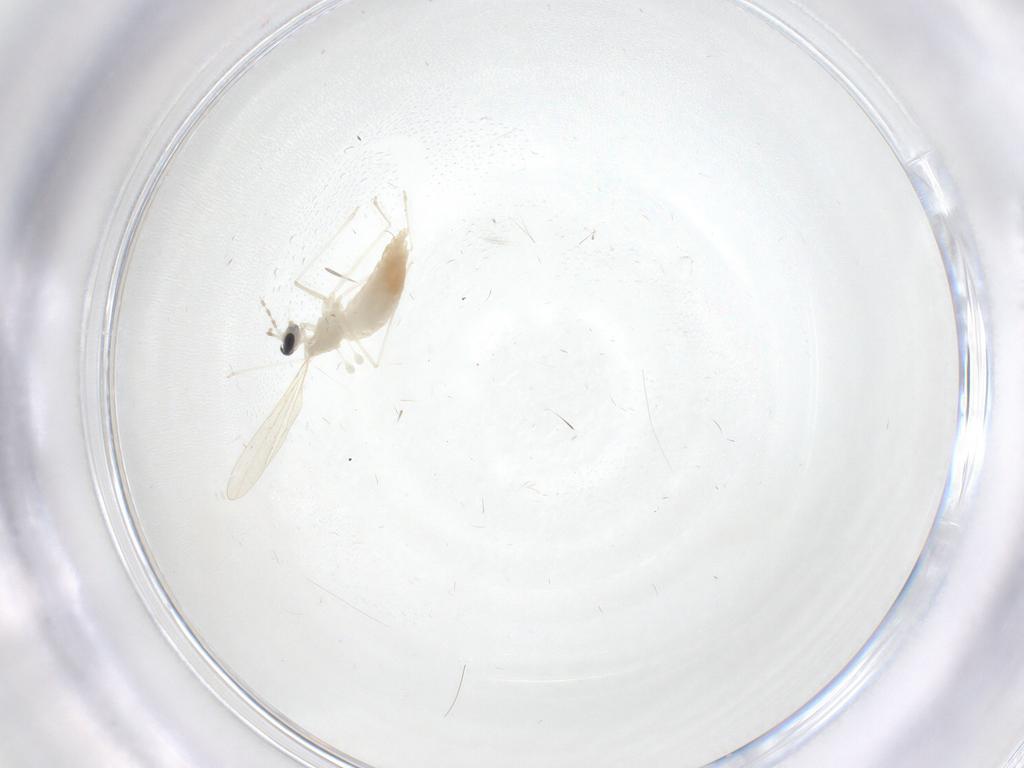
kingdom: Animalia
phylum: Arthropoda
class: Insecta
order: Diptera
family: Cecidomyiidae
